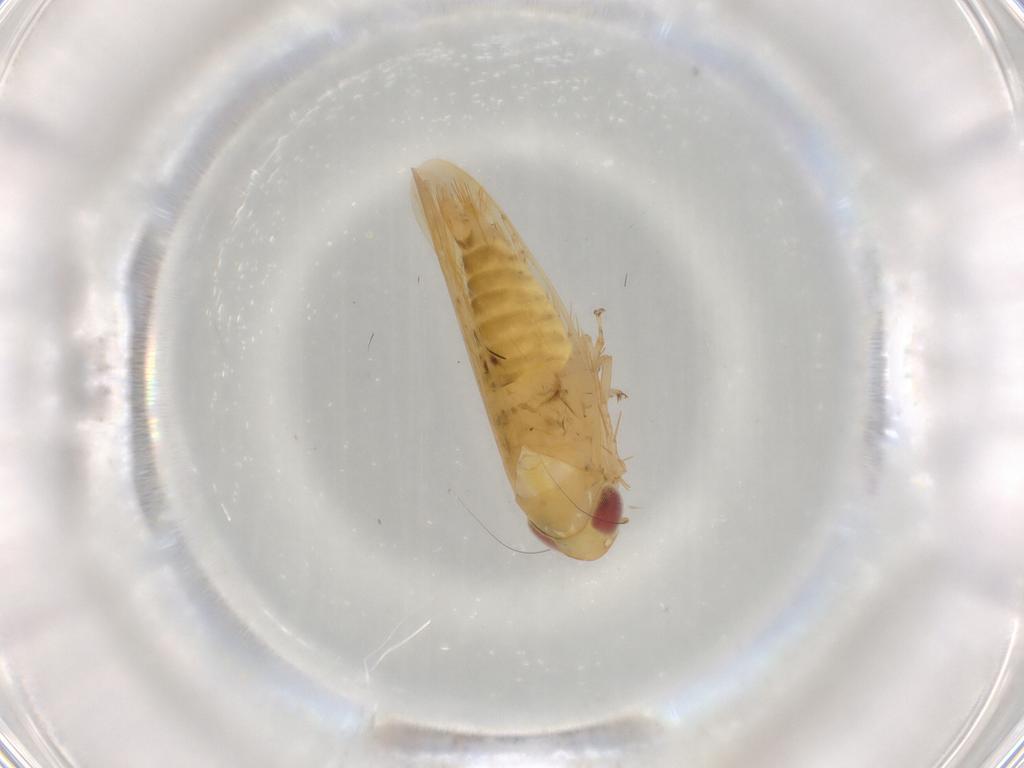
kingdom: Animalia
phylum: Arthropoda
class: Insecta
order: Hemiptera
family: Cicadellidae
